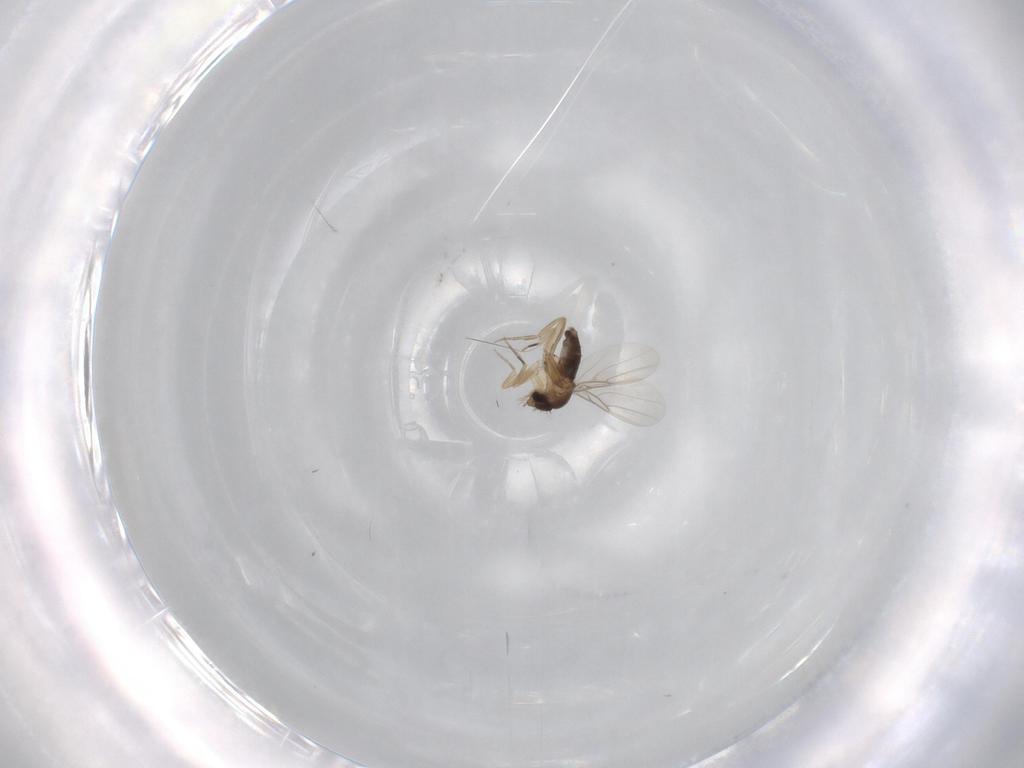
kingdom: Animalia
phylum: Arthropoda
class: Insecta
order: Diptera
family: Phoridae
